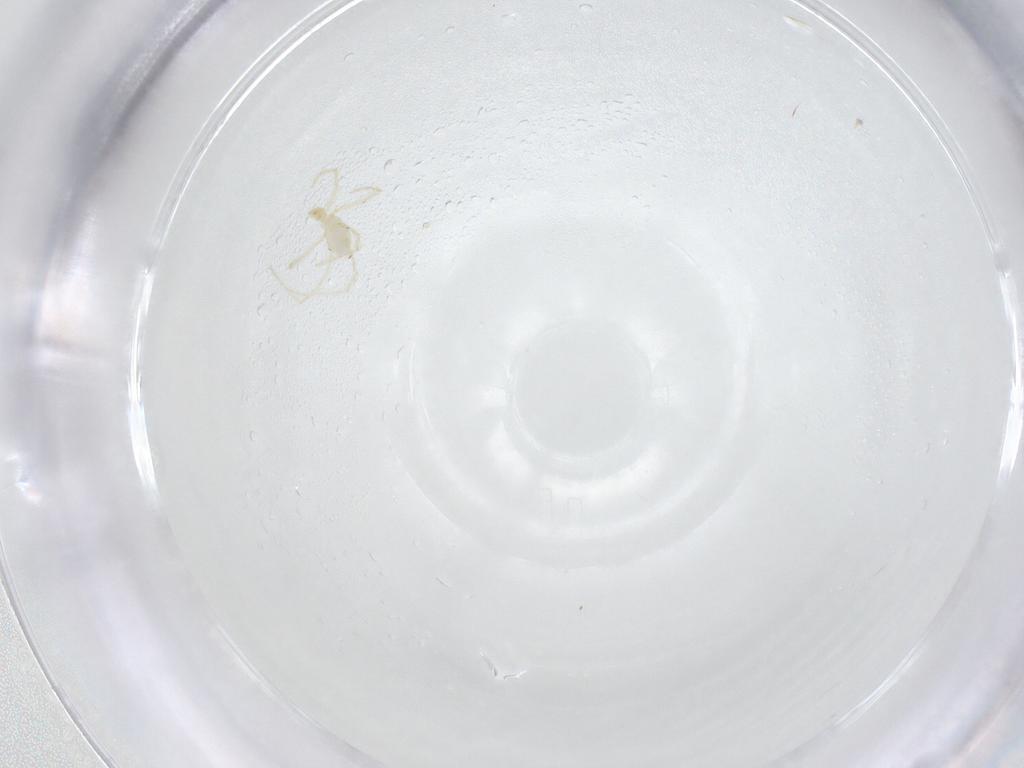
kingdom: Animalia
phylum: Arthropoda
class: Arachnida
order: Trombidiformes
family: Erythraeidae
